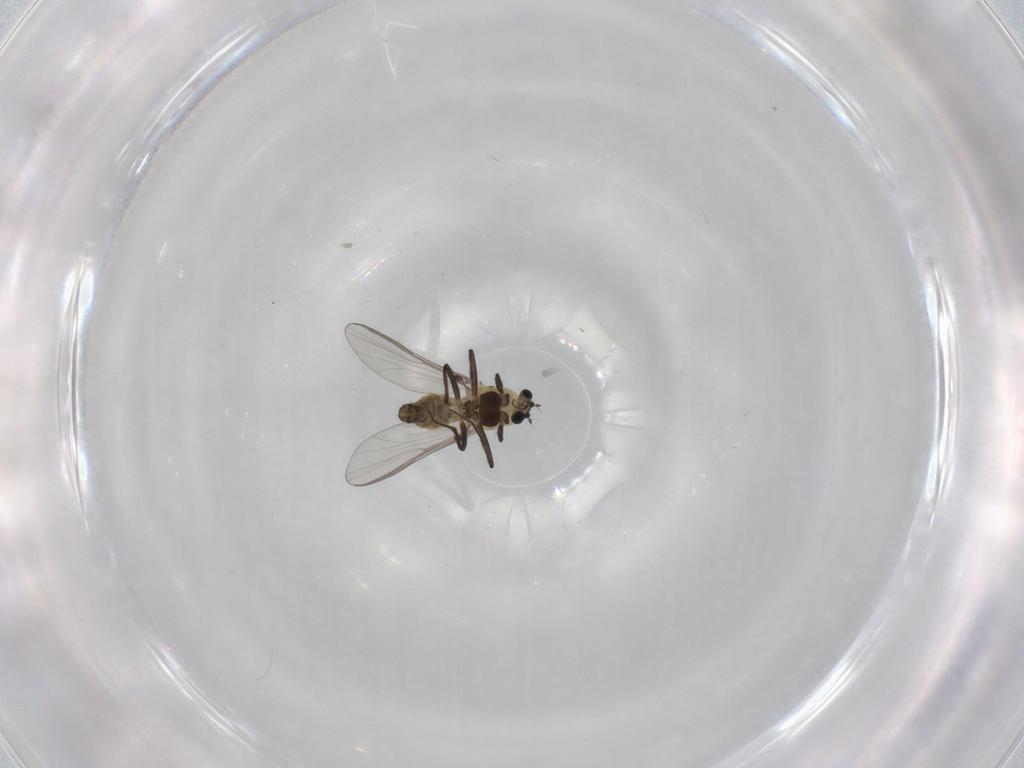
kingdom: Animalia
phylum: Arthropoda
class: Insecta
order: Diptera
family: Chironomidae
